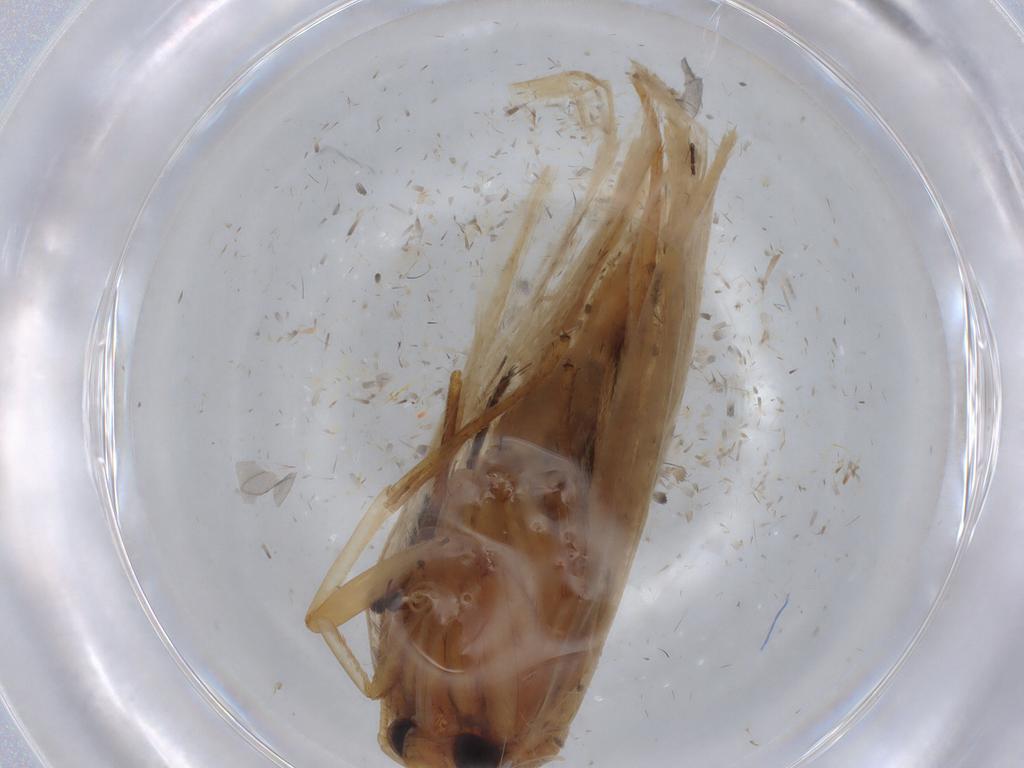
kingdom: Animalia
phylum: Arthropoda
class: Insecta
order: Lepidoptera
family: Lecithoceridae
